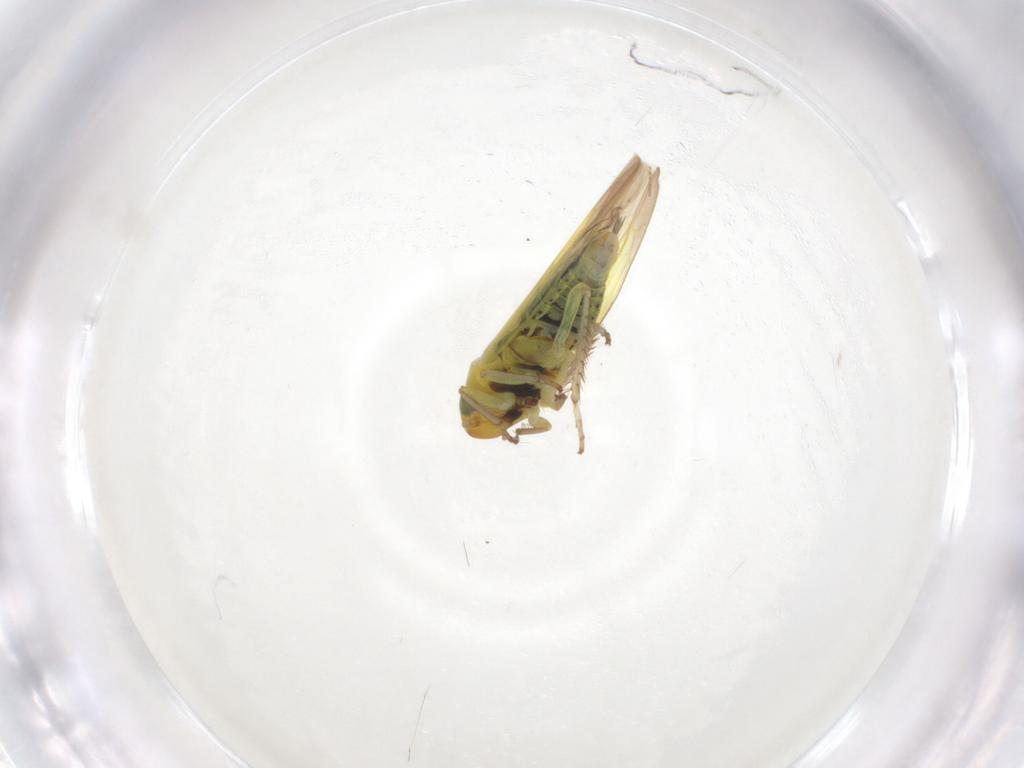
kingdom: Animalia
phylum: Arthropoda
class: Insecta
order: Hemiptera
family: Cicadellidae
